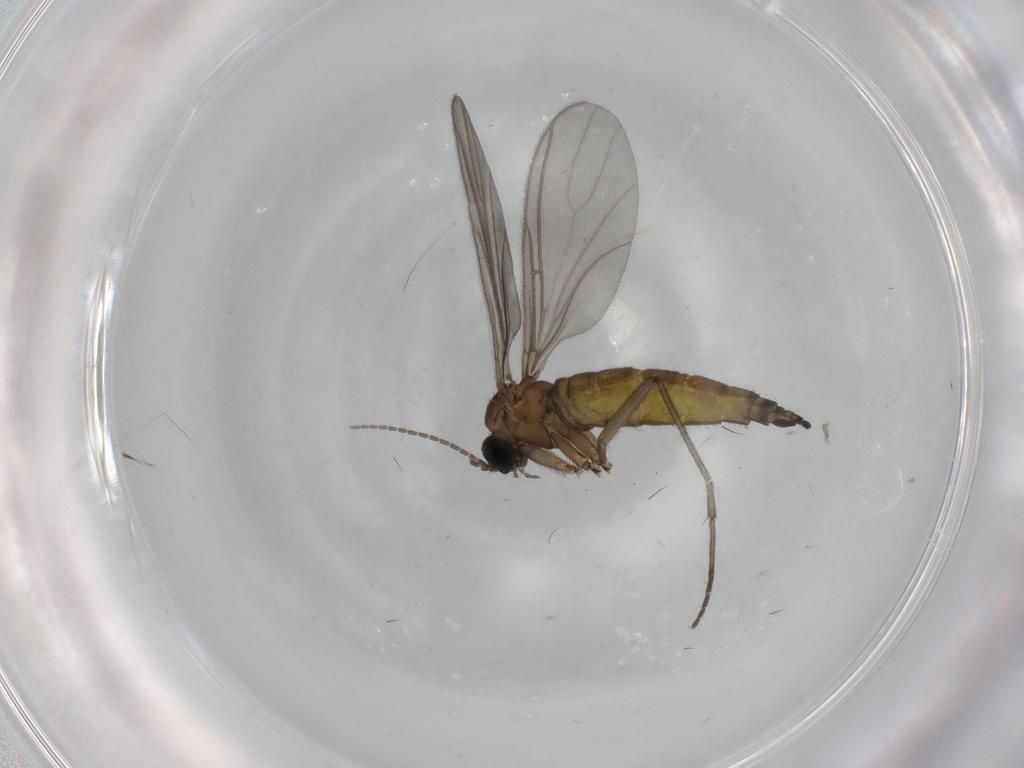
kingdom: Animalia
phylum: Arthropoda
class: Insecta
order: Diptera
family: Sciaridae
